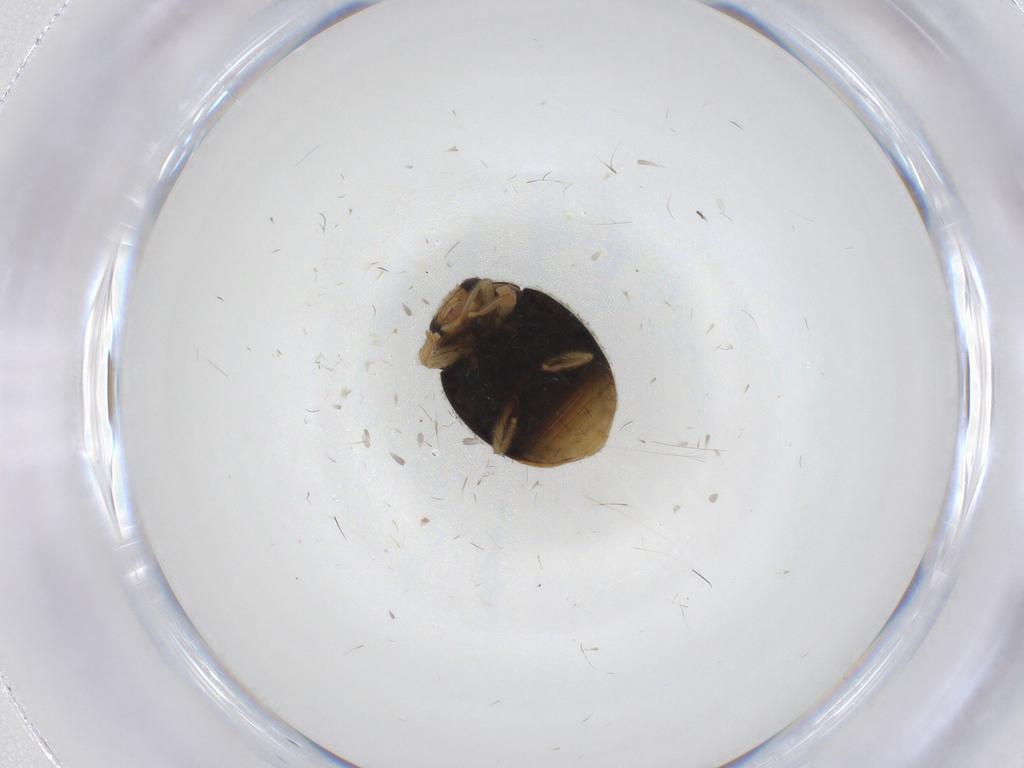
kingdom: Animalia
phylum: Arthropoda
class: Insecta
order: Coleoptera
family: Coccinellidae
